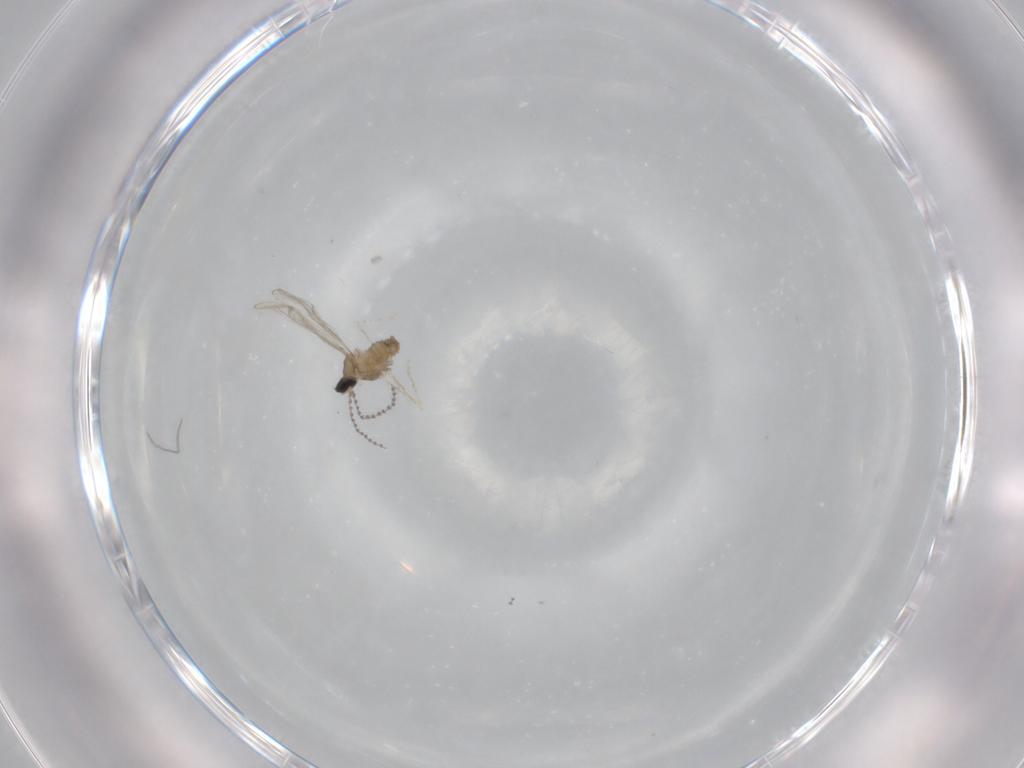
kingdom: Animalia
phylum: Arthropoda
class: Insecta
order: Diptera
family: Cecidomyiidae
